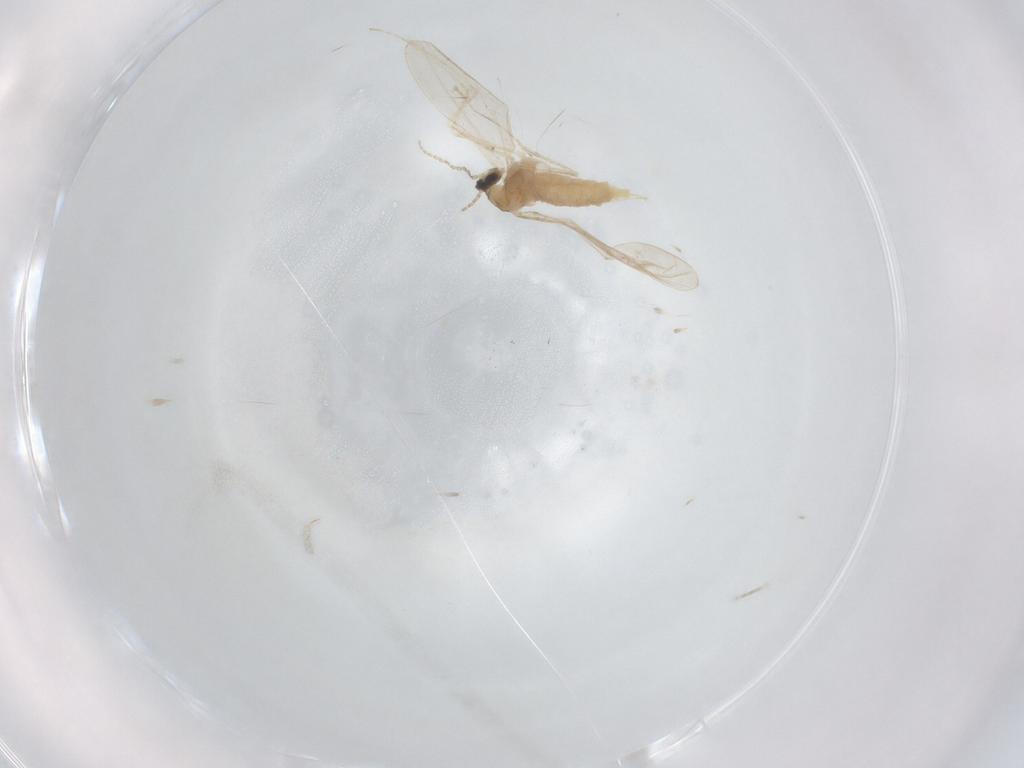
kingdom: Animalia
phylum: Arthropoda
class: Insecta
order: Diptera
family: Cecidomyiidae
